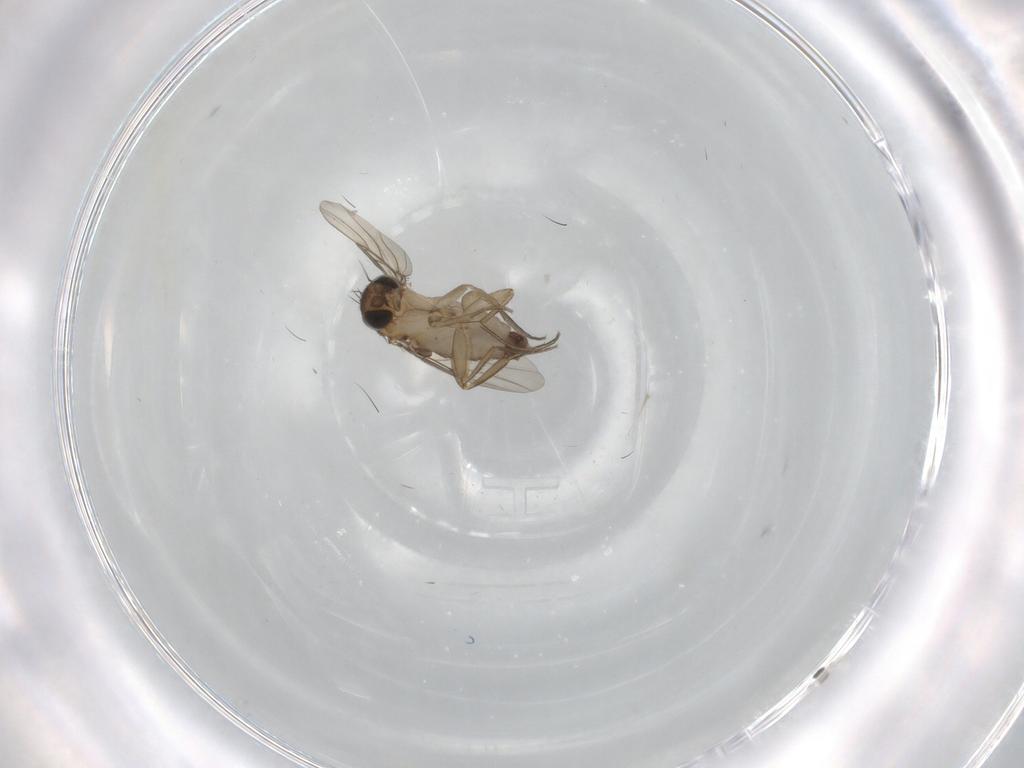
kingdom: Animalia
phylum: Arthropoda
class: Insecta
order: Diptera
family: Phoridae
